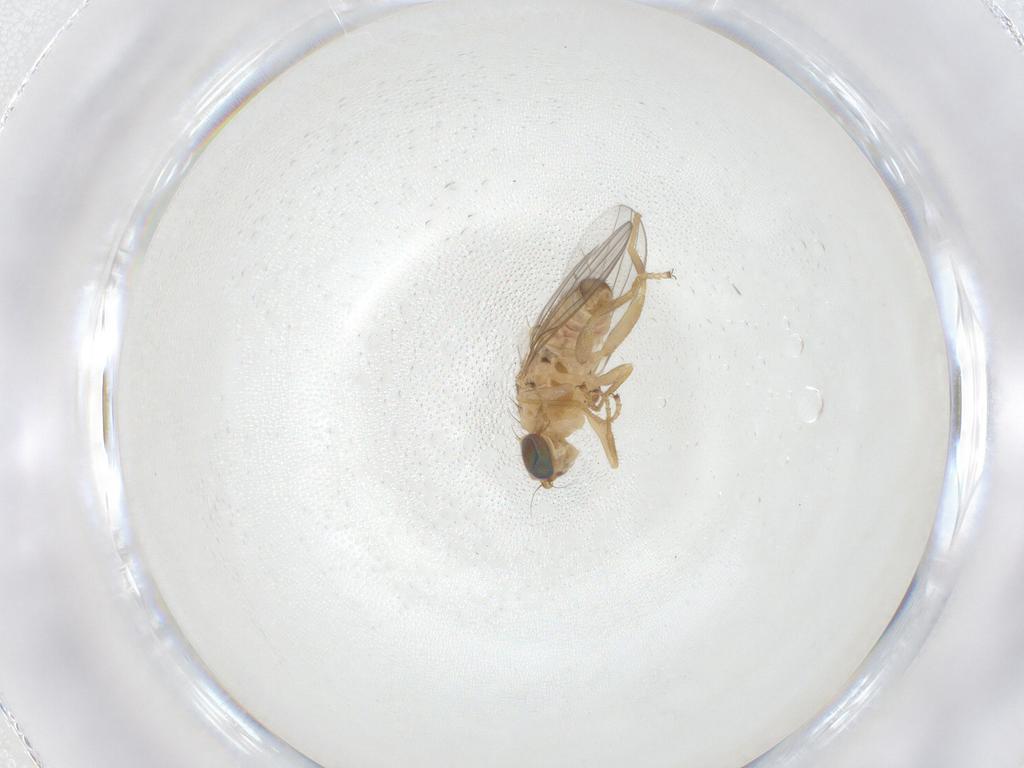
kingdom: Animalia
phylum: Arthropoda
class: Insecta
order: Diptera
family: Chyromyidae
